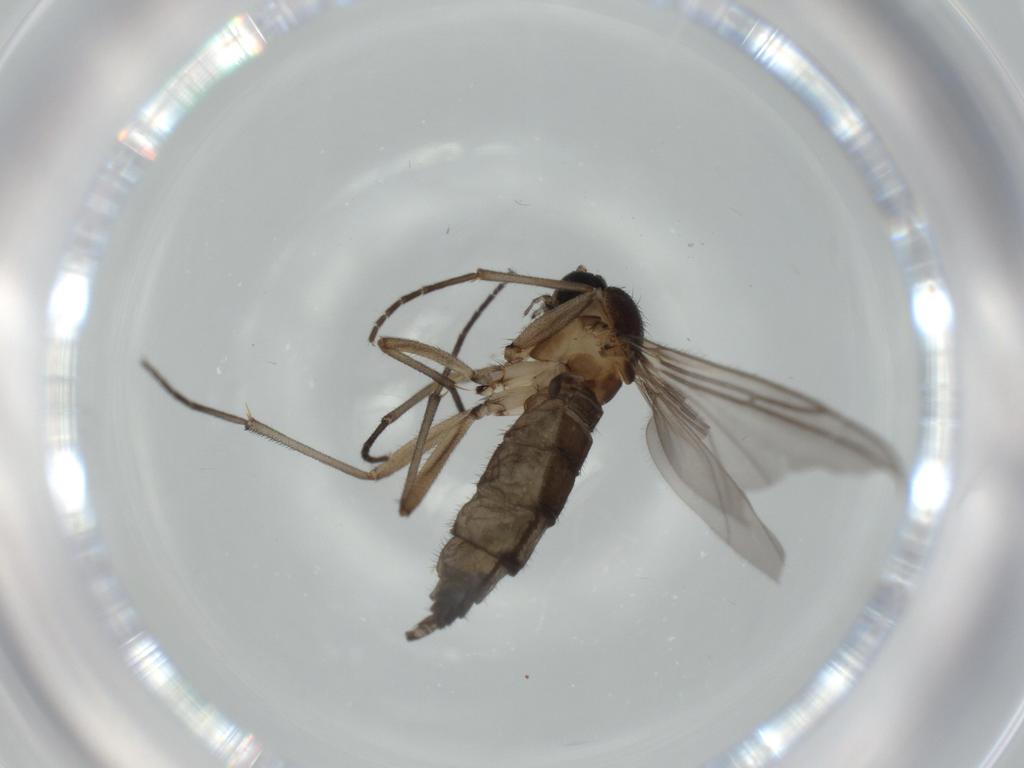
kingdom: Animalia
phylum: Arthropoda
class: Insecta
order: Diptera
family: Sciaridae
